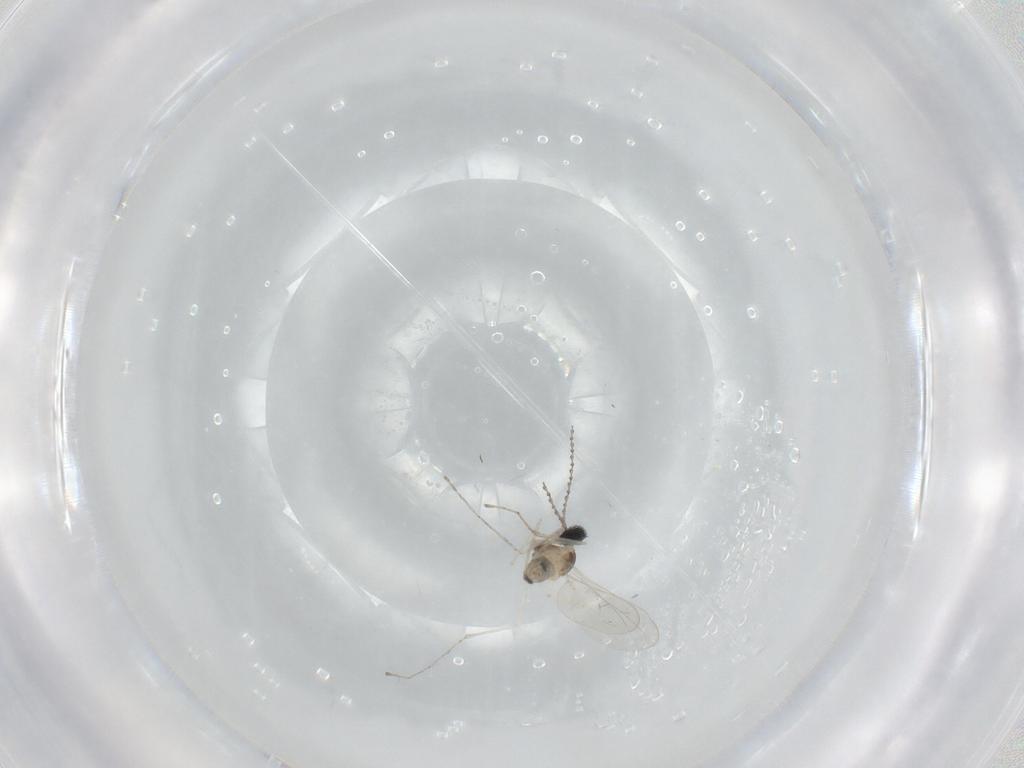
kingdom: Animalia
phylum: Arthropoda
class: Insecta
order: Diptera
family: Cecidomyiidae
